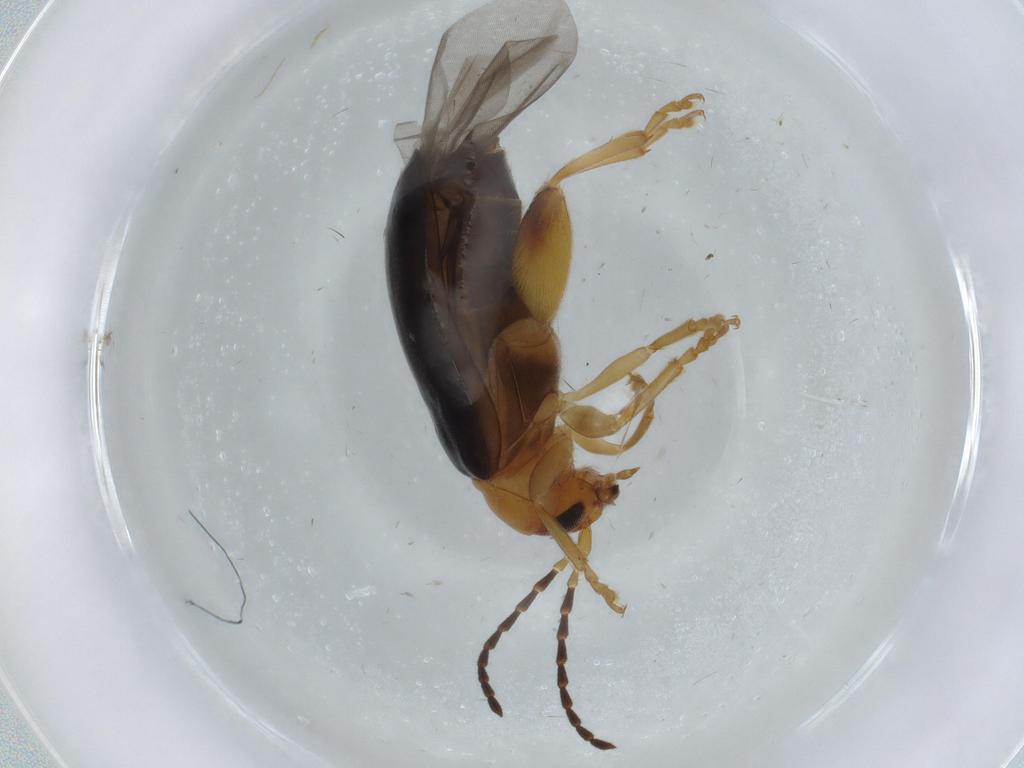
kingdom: Animalia
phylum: Arthropoda
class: Insecta
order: Coleoptera
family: Chrysomelidae
